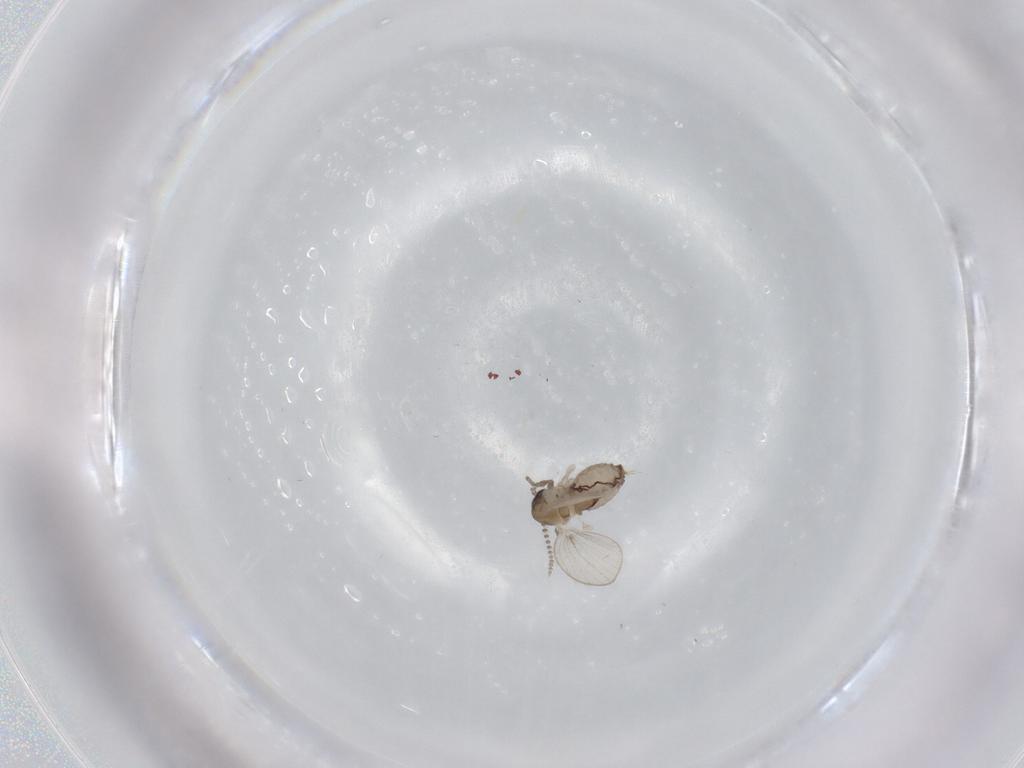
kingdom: Animalia
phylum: Arthropoda
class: Insecta
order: Diptera
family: Psychodidae
